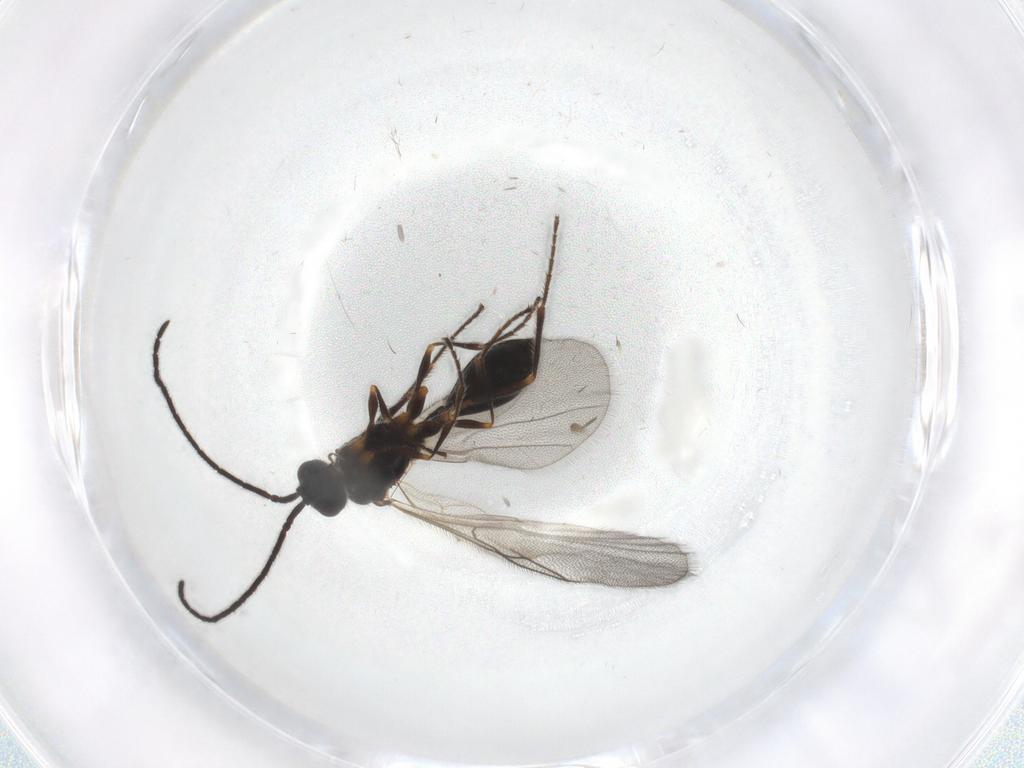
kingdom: Animalia
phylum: Arthropoda
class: Insecta
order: Hymenoptera
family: Diapriidae
